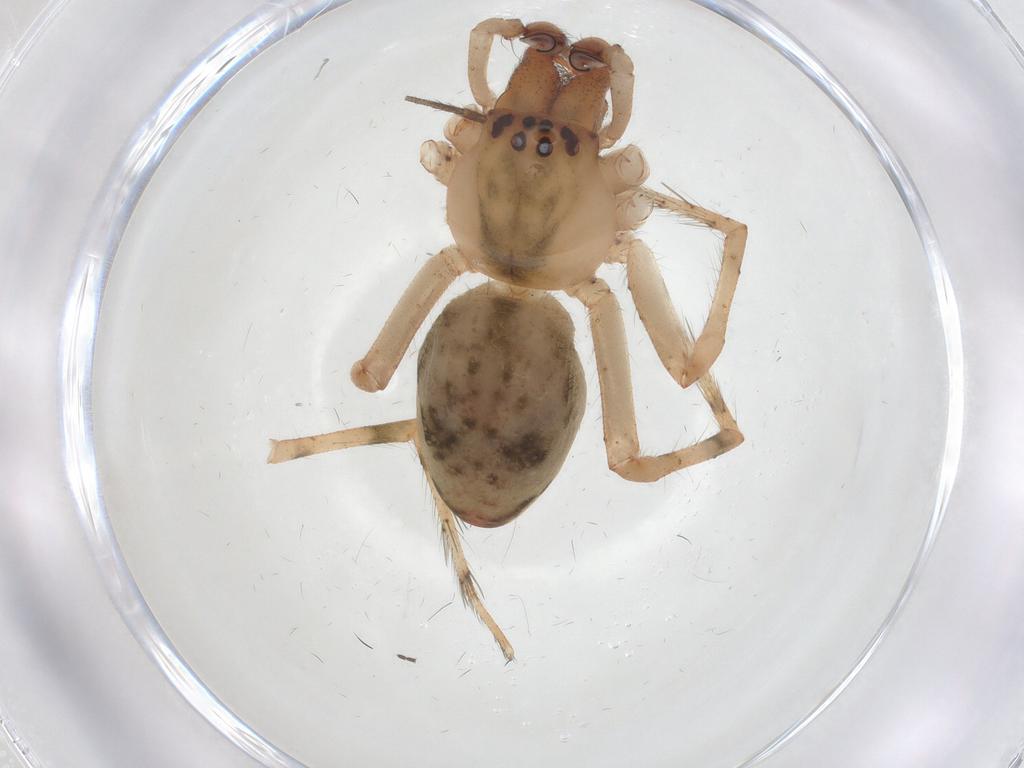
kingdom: Animalia
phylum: Arthropoda
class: Arachnida
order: Araneae
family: Dictynidae
